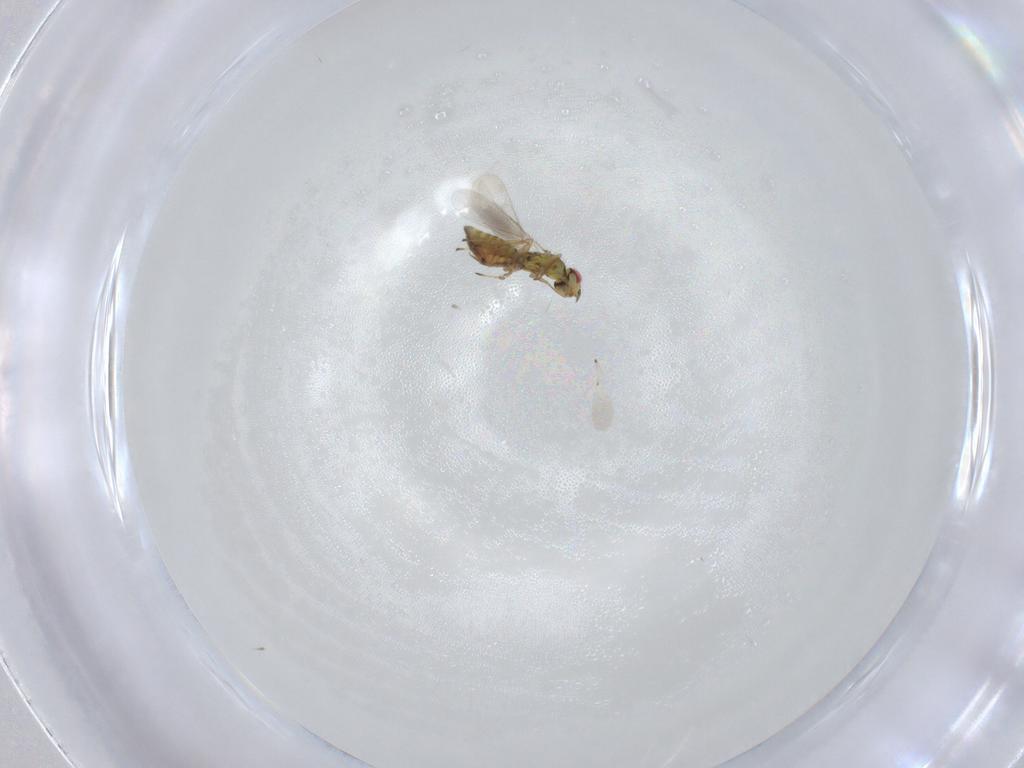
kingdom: Animalia
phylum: Arthropoda
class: Insecta
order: Hymenoptera
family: Eulophidae
